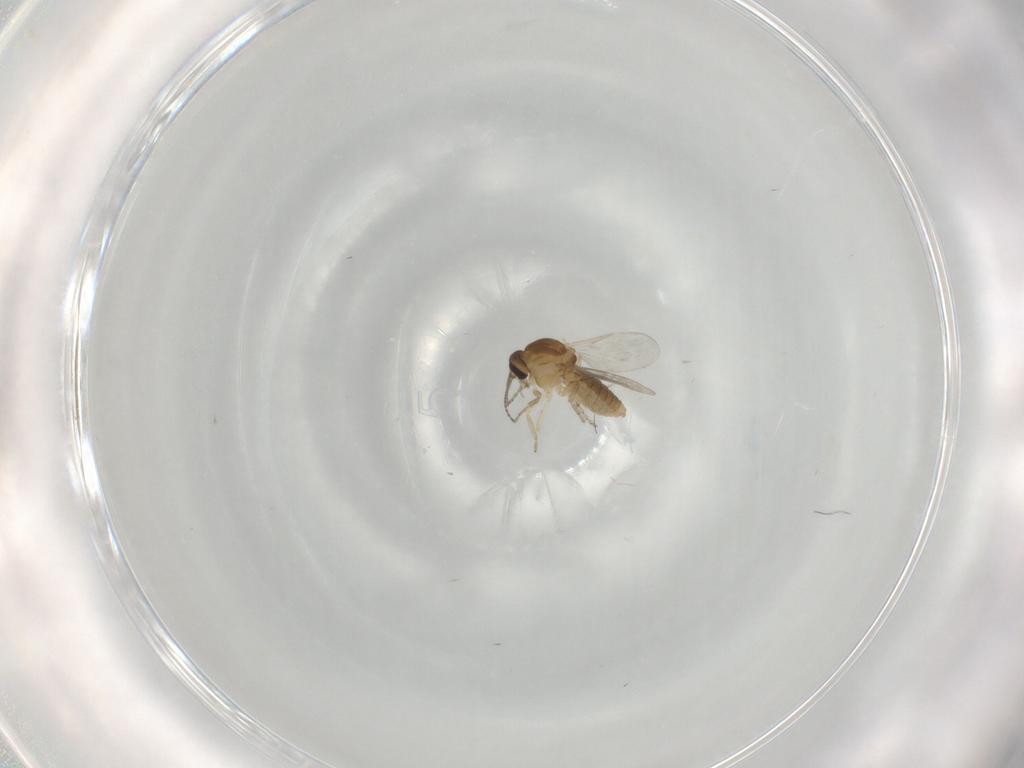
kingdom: Animalia
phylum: Arthropoda
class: Insecta
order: Diptera
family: Ceratopogonidae
